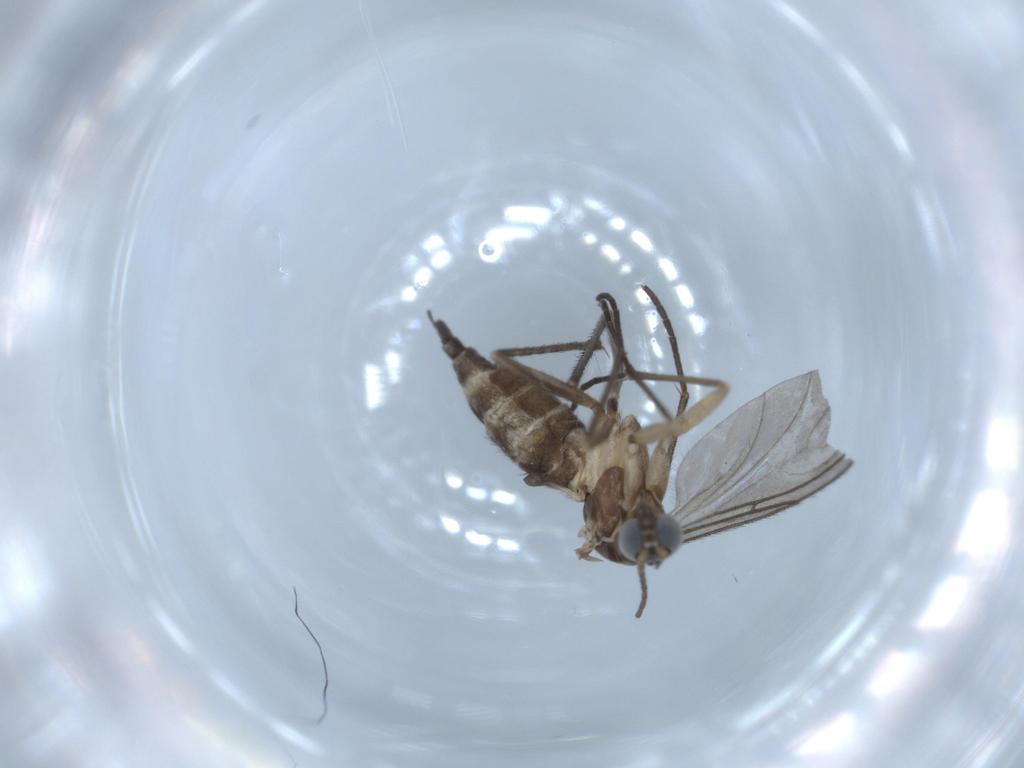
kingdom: Animalia
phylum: Arthropoda
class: Insecta
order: Diptera
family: Sciaridae
